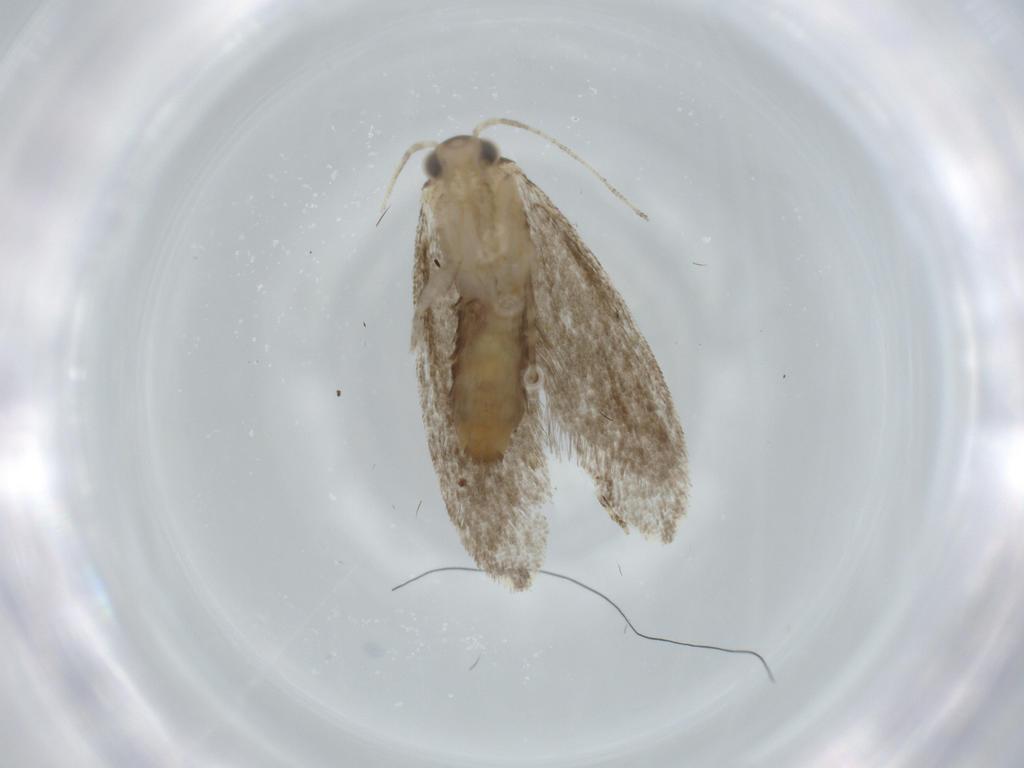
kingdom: Animalia
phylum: Arthropoda
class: Insecta
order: Lepidoptera
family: Tineidae
